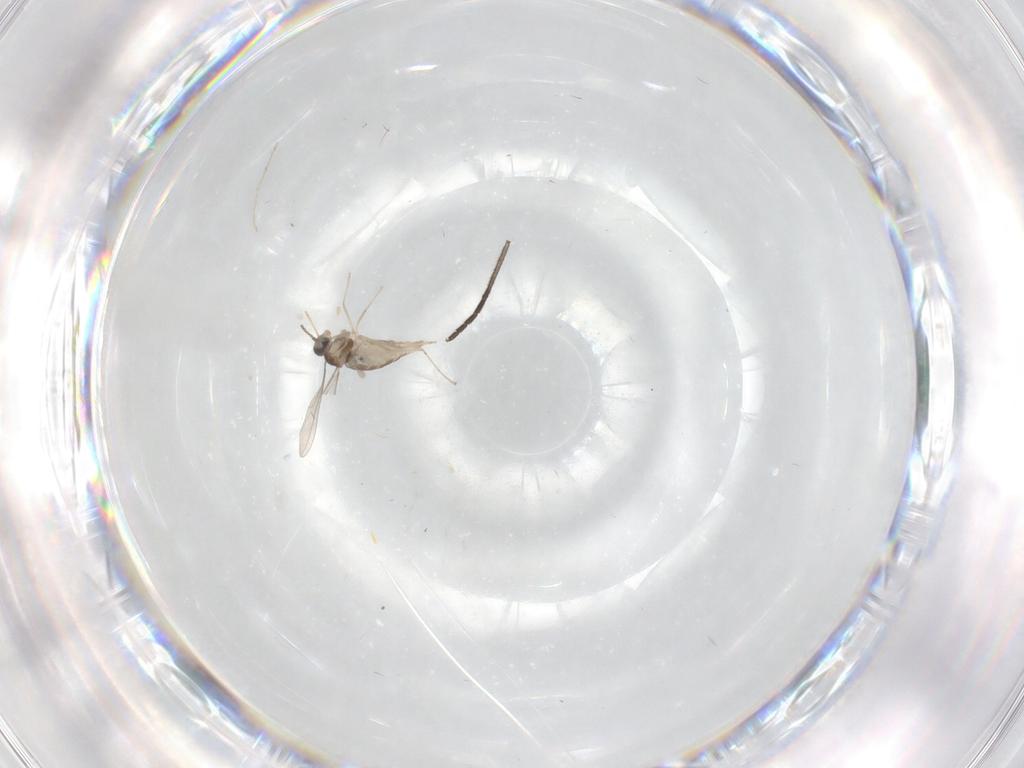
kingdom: Animalia
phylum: Arthropoda
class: Insecta
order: Diptera
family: Sciaridae
